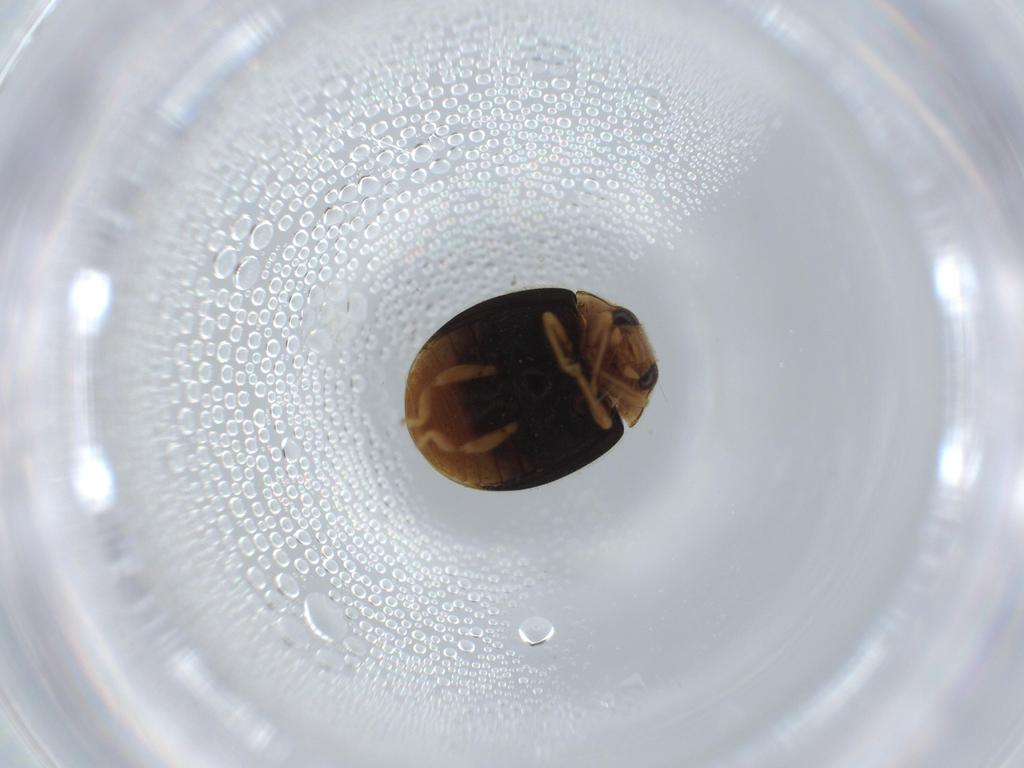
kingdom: Animalia
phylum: Arthropoda
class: Insecta
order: Coleoptera
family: Coccinellidae
